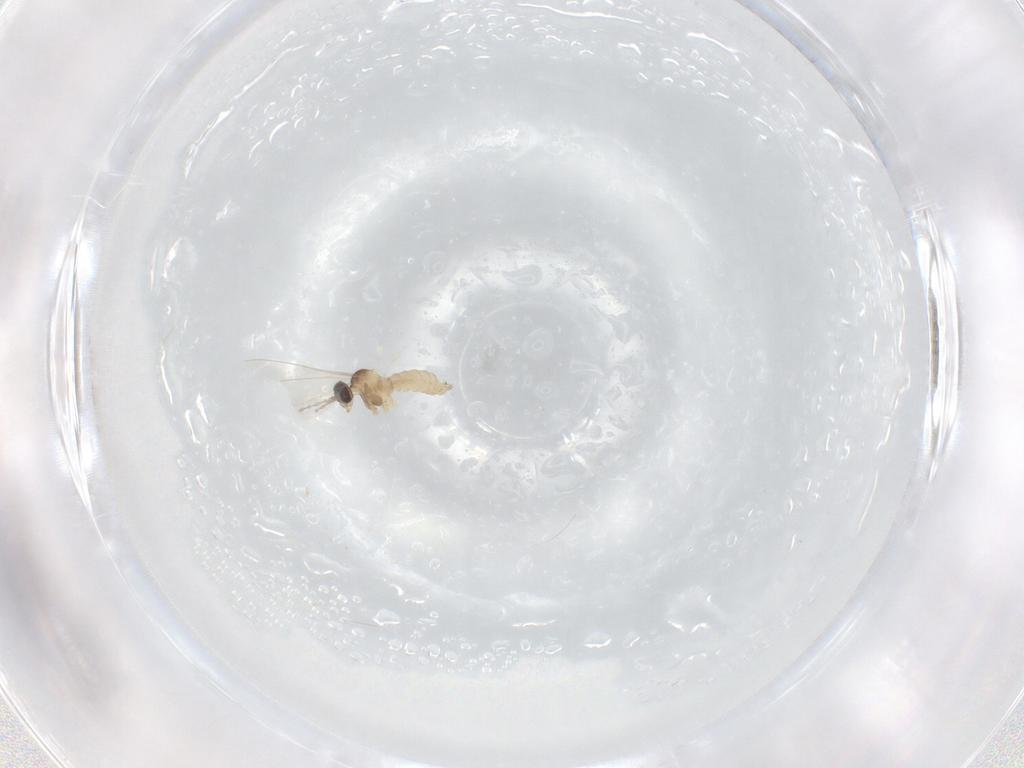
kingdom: Animalia
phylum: Arthropoda
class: Insecta
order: Diptera
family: Cecidomyiidae
